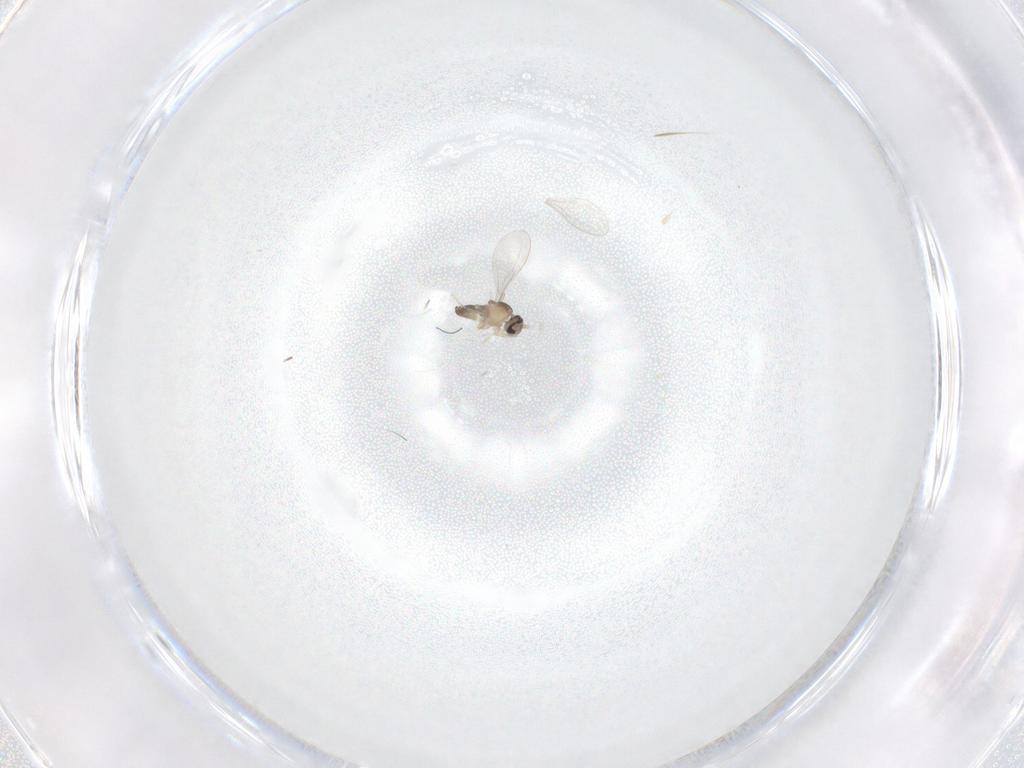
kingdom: Animalia
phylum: Arthropoda
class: Insecta
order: Diptera
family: Cecidomyiidae
